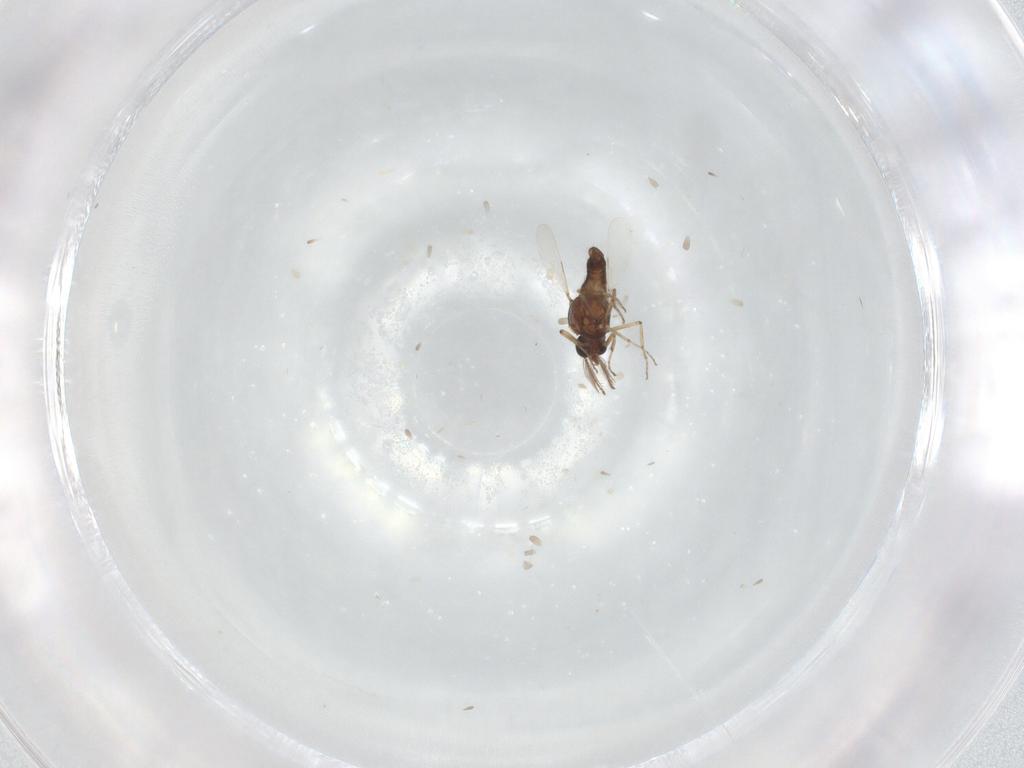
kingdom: Animalia
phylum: Arthropoda
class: Insecta
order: Diptera
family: Ceratopogonidae
